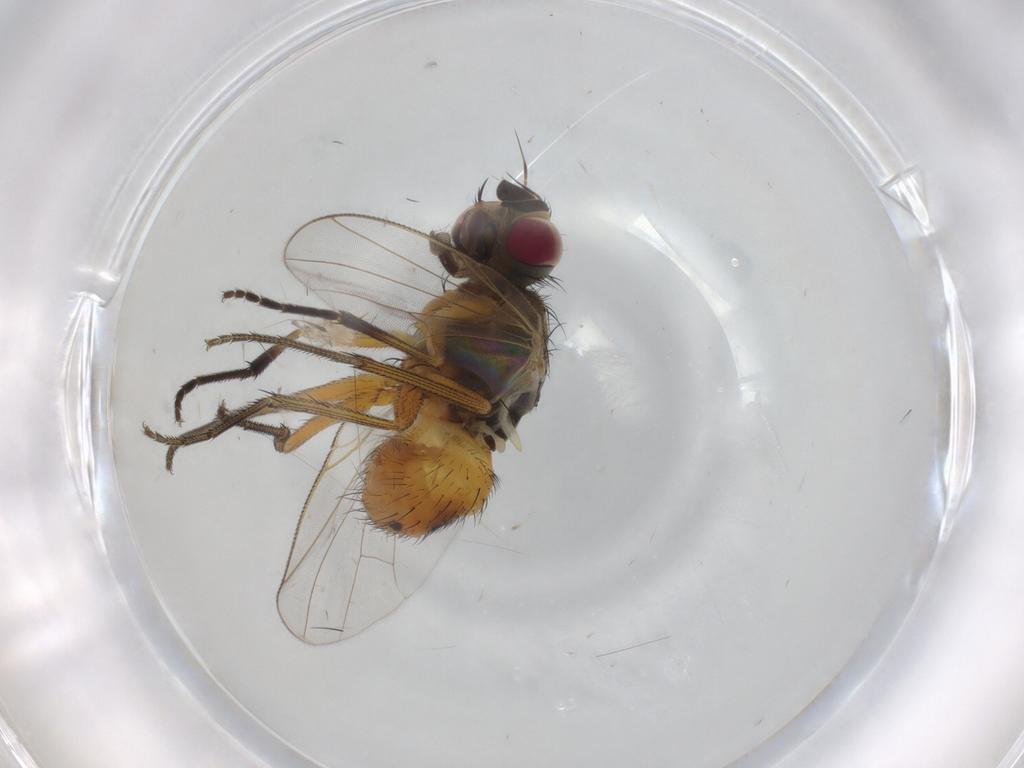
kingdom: Animalia
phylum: Arthropoda
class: Insecta
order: Diptera
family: Muscidae
